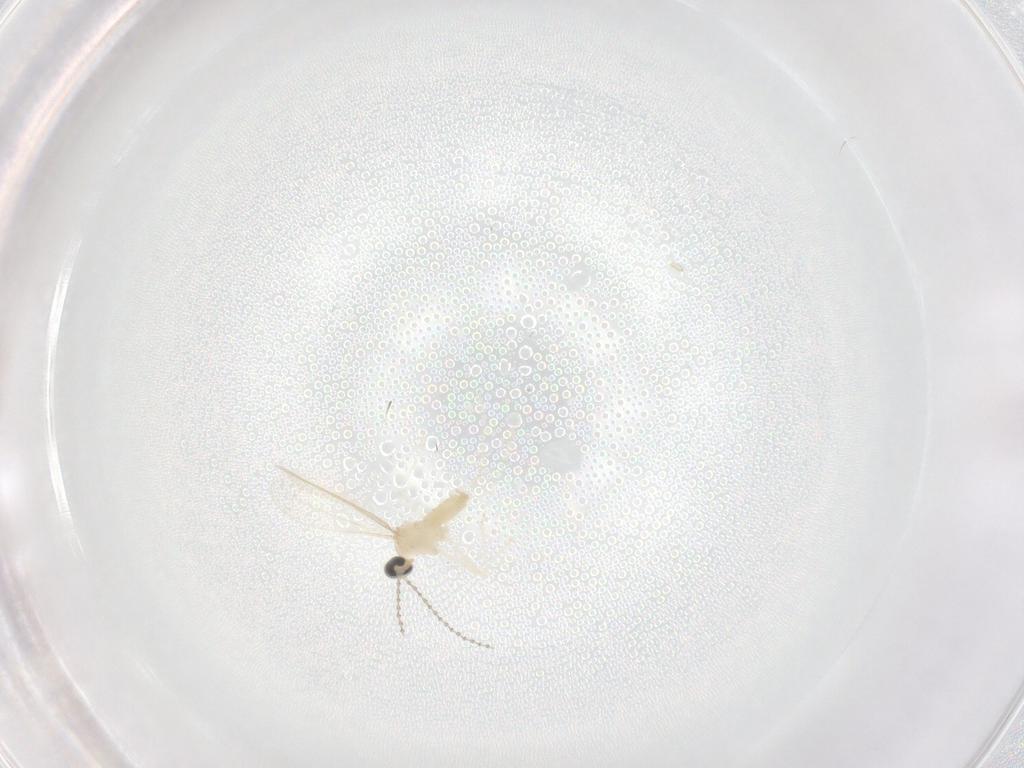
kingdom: Animalia
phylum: Arthropoda
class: Insecta
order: Diptera
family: Cecidomyiidae
